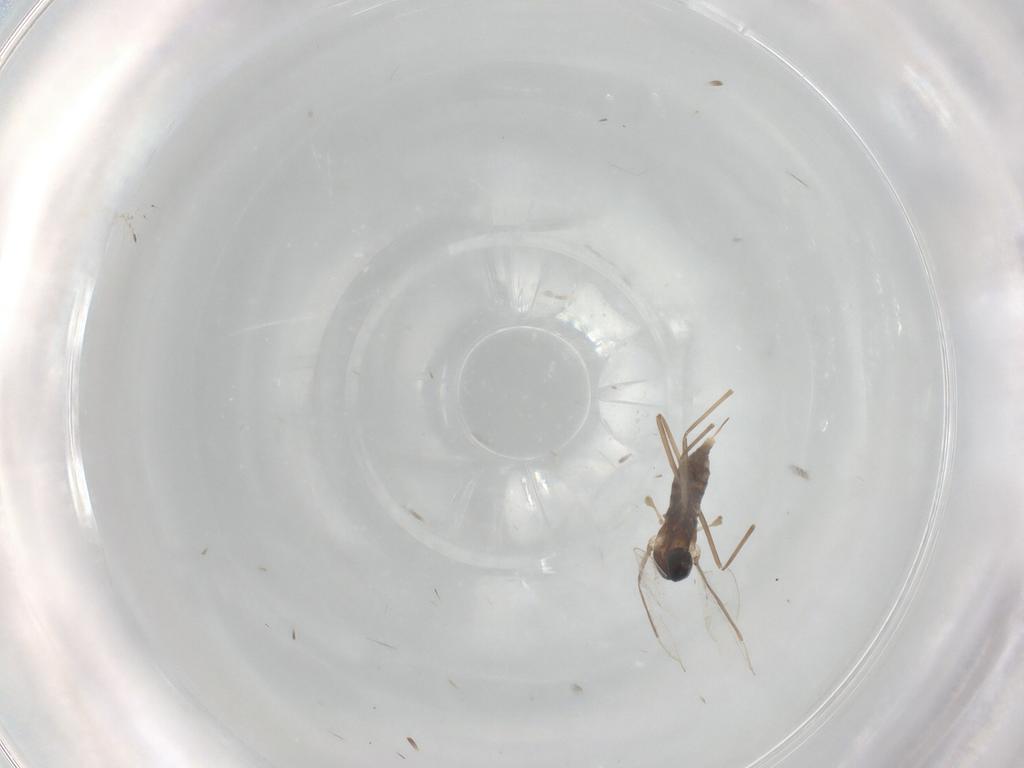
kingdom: Animalia
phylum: Arthropoda
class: Insecta
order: Diptera
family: Cecidomyiidae
